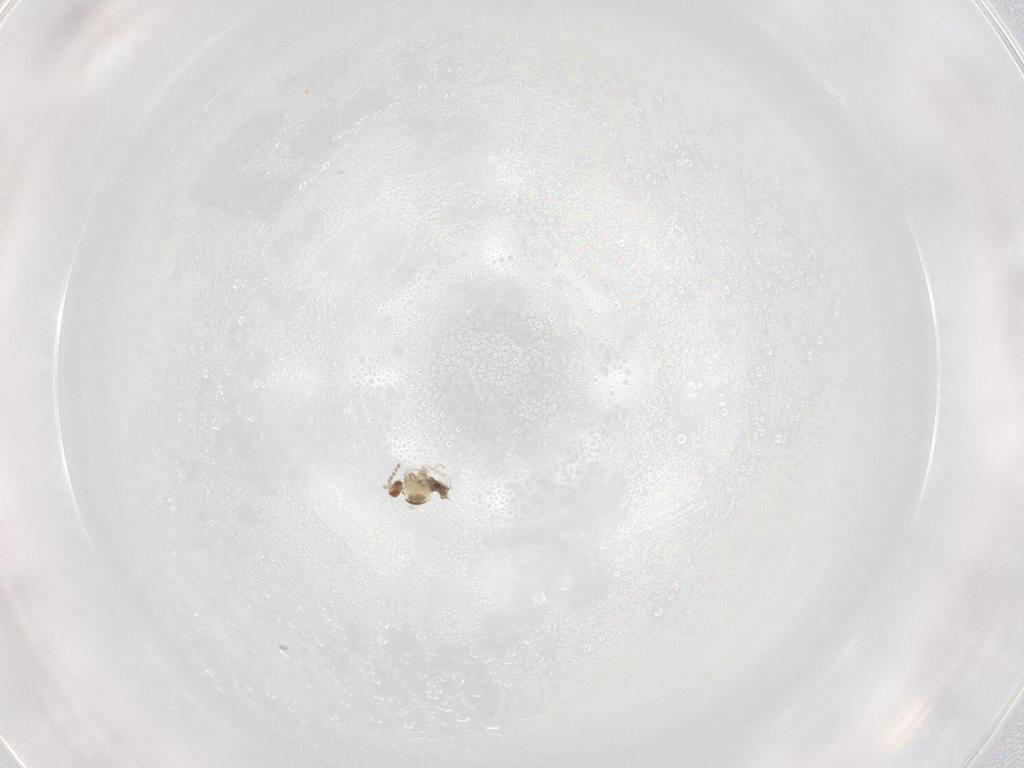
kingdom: Animalia
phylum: Arthropoda
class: Insecta
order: Diptera
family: Cecidomyiidae
